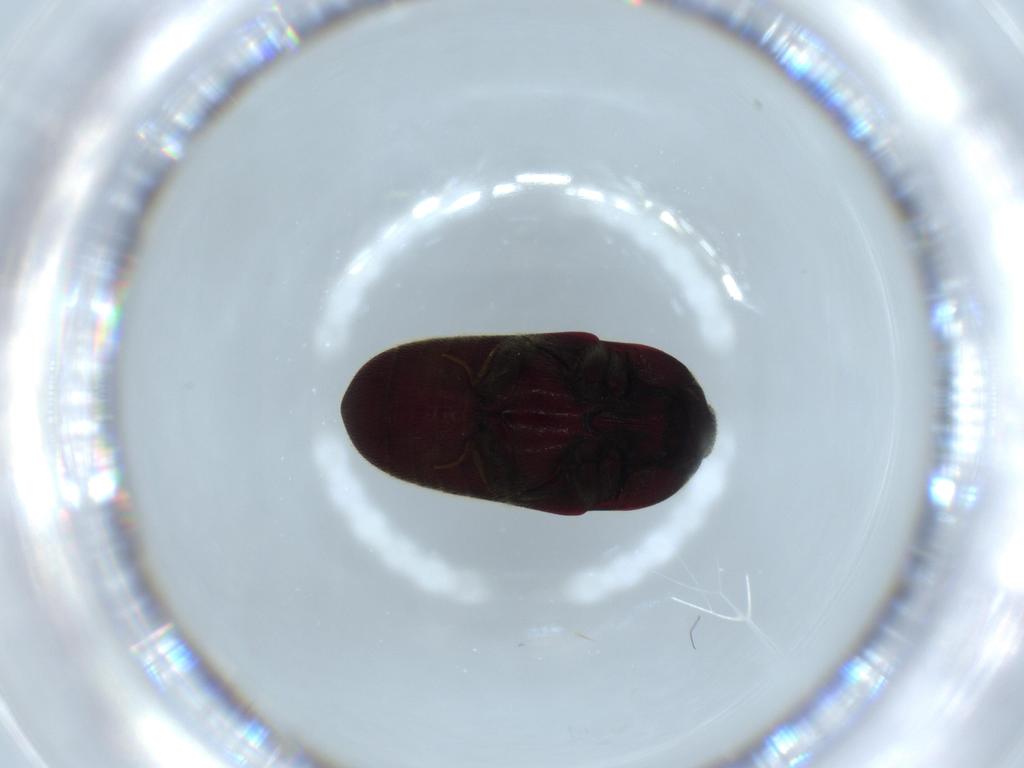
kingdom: Animalia
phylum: Arthropoda
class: Insecta
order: Coleoptera
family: Throscidae
